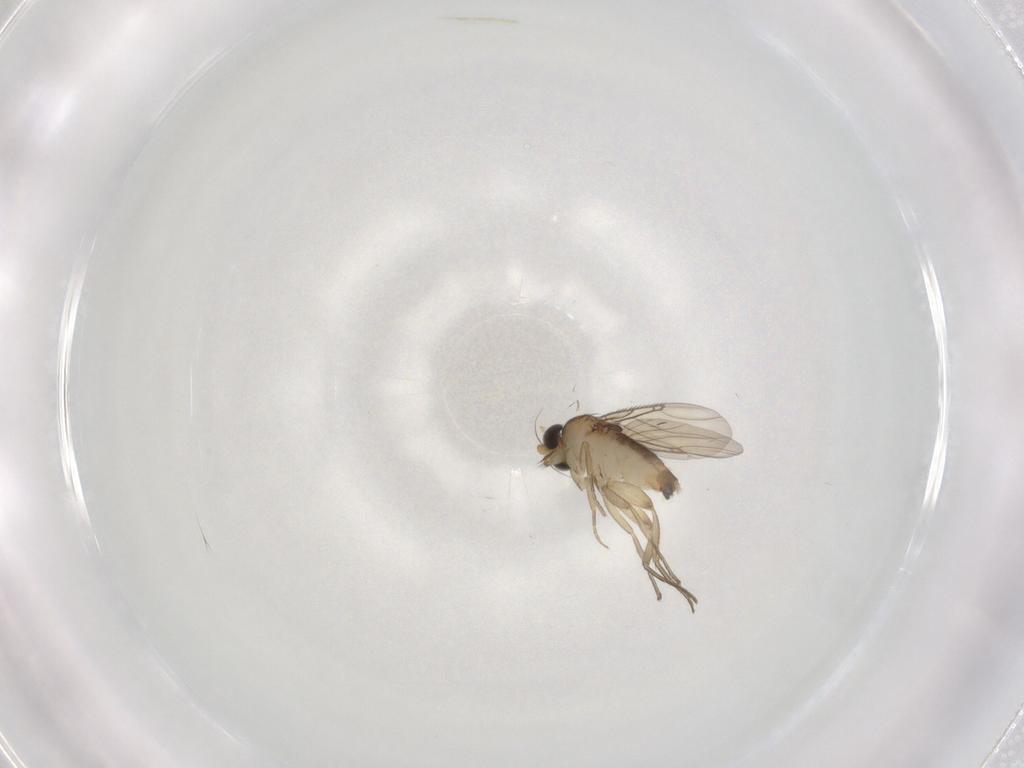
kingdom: Animalia
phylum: Arthropoda
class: Insecta
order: Diptera
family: Phoridae
